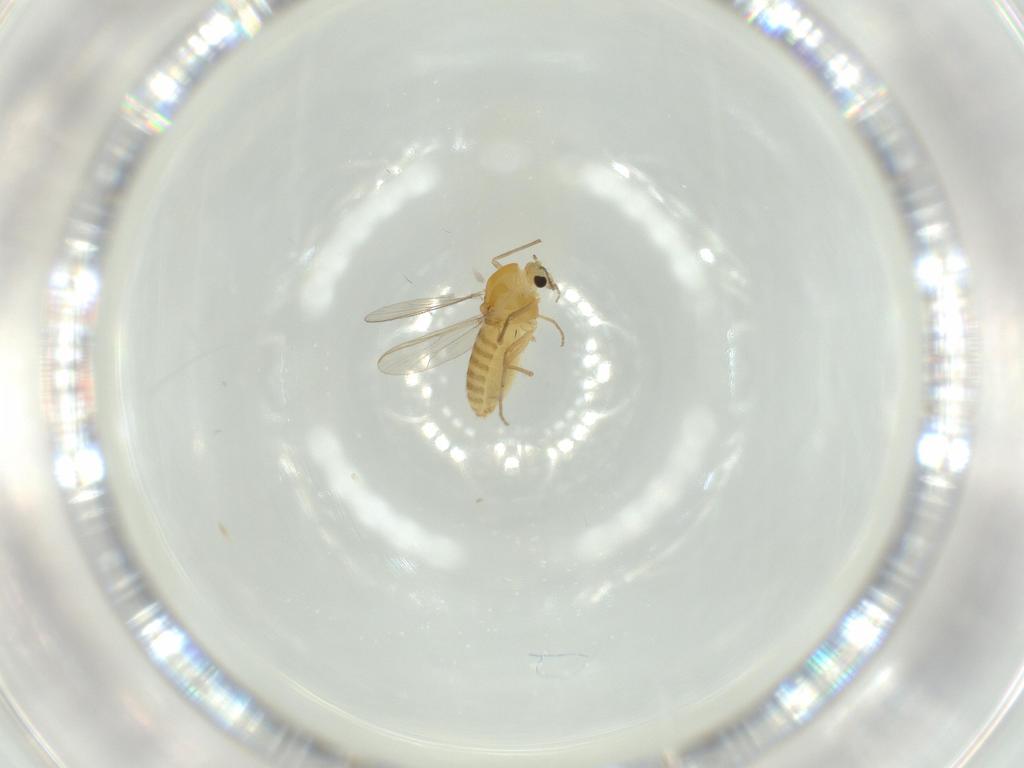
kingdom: Animalia
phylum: Arthropoda
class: Insecta
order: Diptera
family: Chironomidae
